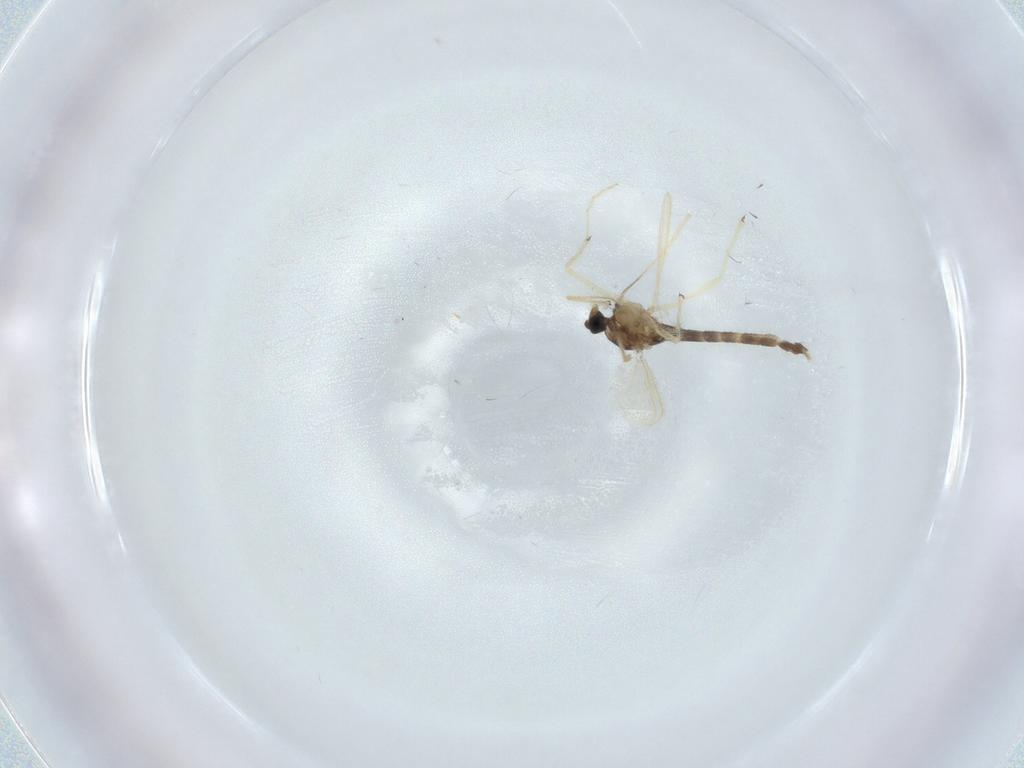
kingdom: Animalia
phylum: Arthropoda
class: Insecta
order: Diptera
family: Chironomidae
